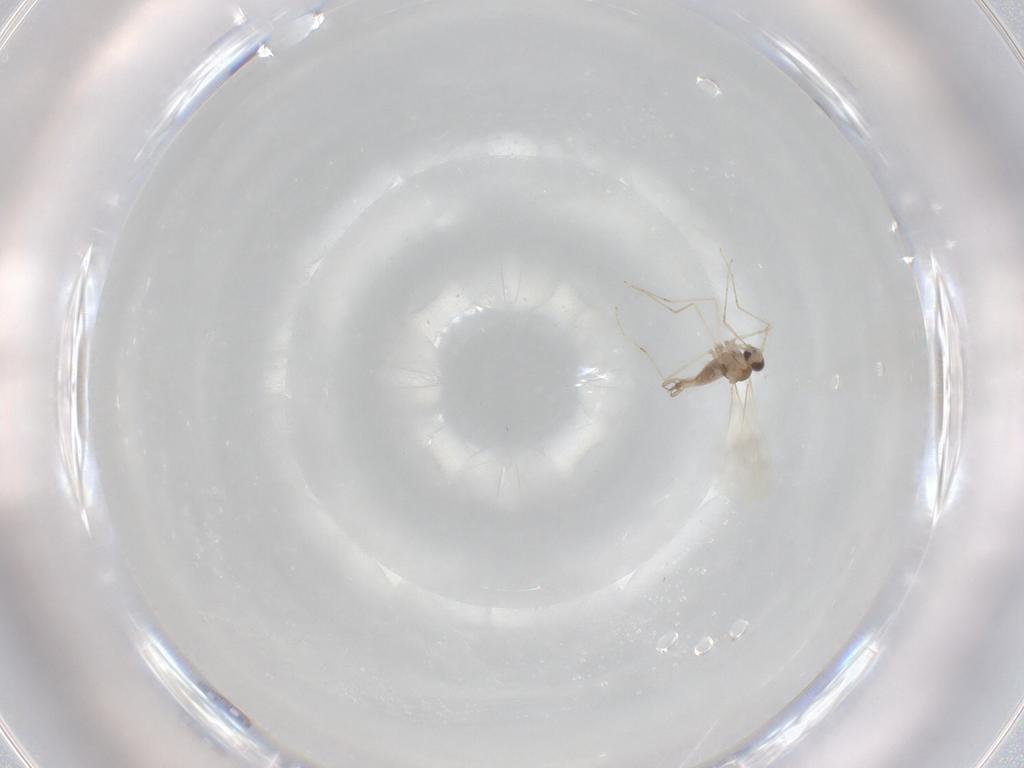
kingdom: Animalia
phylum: Arthropoda
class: Insecta
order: Diptera
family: Cecidomyiidae
